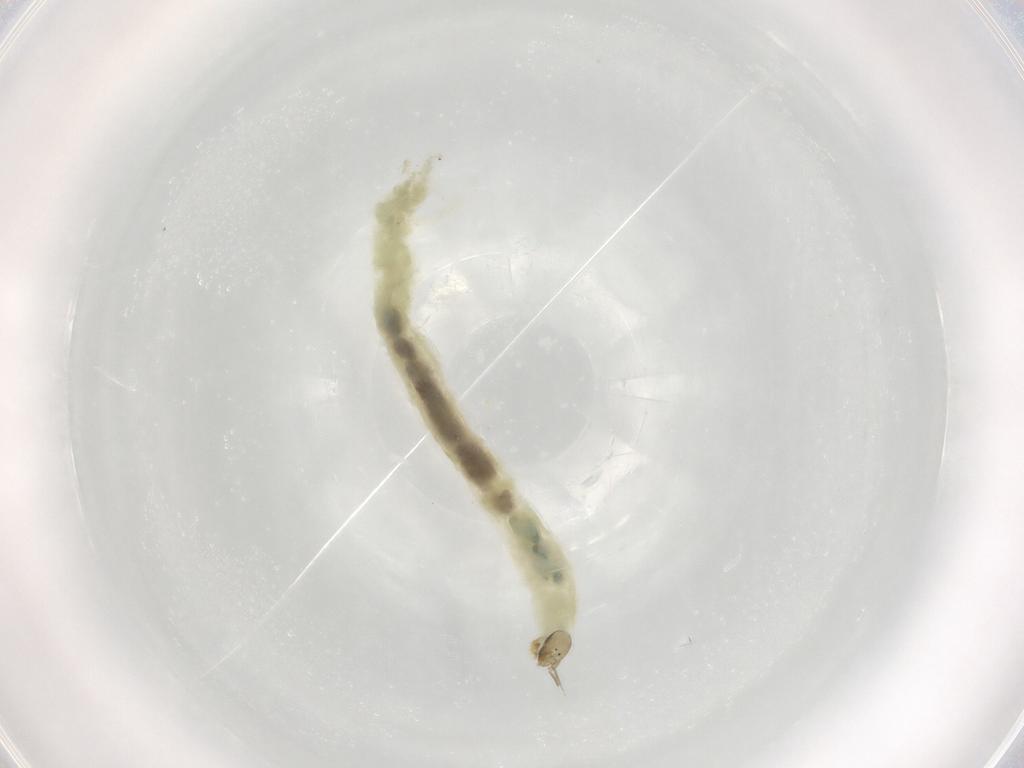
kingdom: Animalia
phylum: Arthropoda
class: Insecta
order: Diptera
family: Chironomidae
